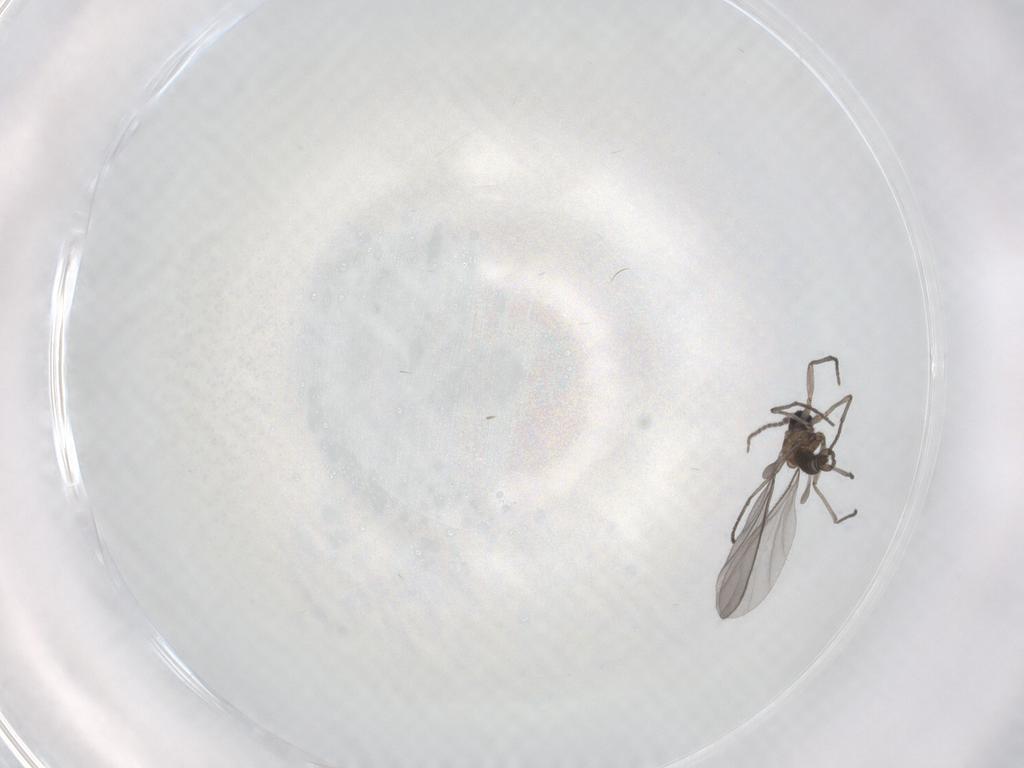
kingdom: Animalia
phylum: Arthropoda
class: Insecta
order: Diptera
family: Sciaridae
